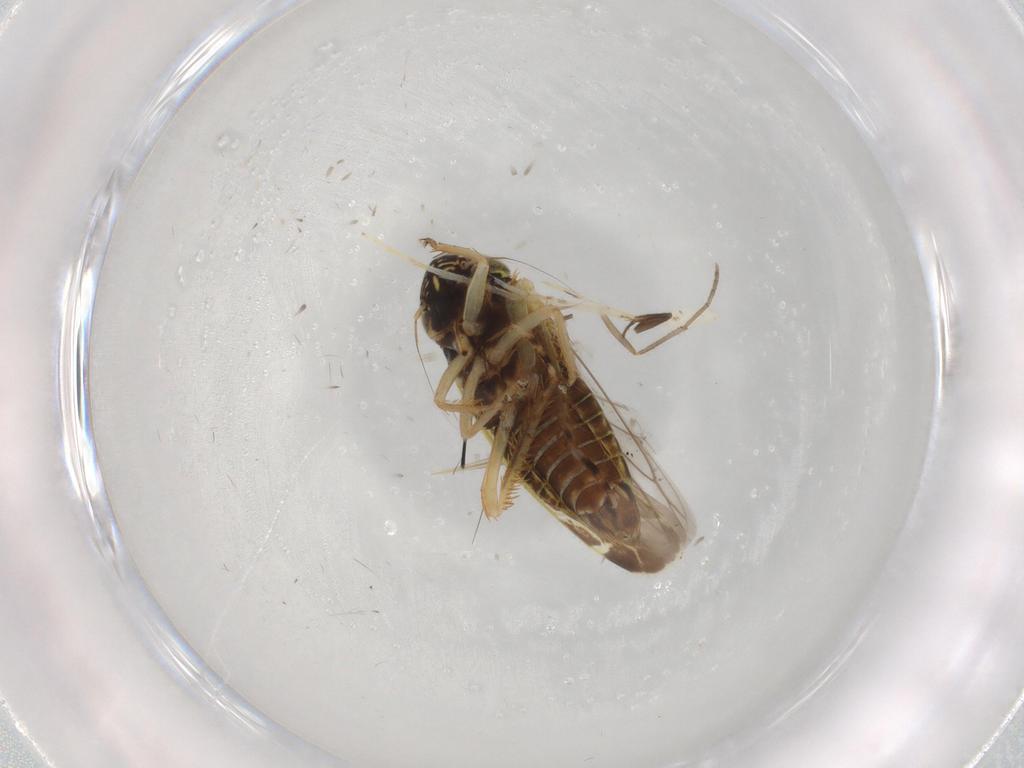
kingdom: Animalia
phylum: Arthropoda
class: Insecta
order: Hemiptera
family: Cicadellidae
